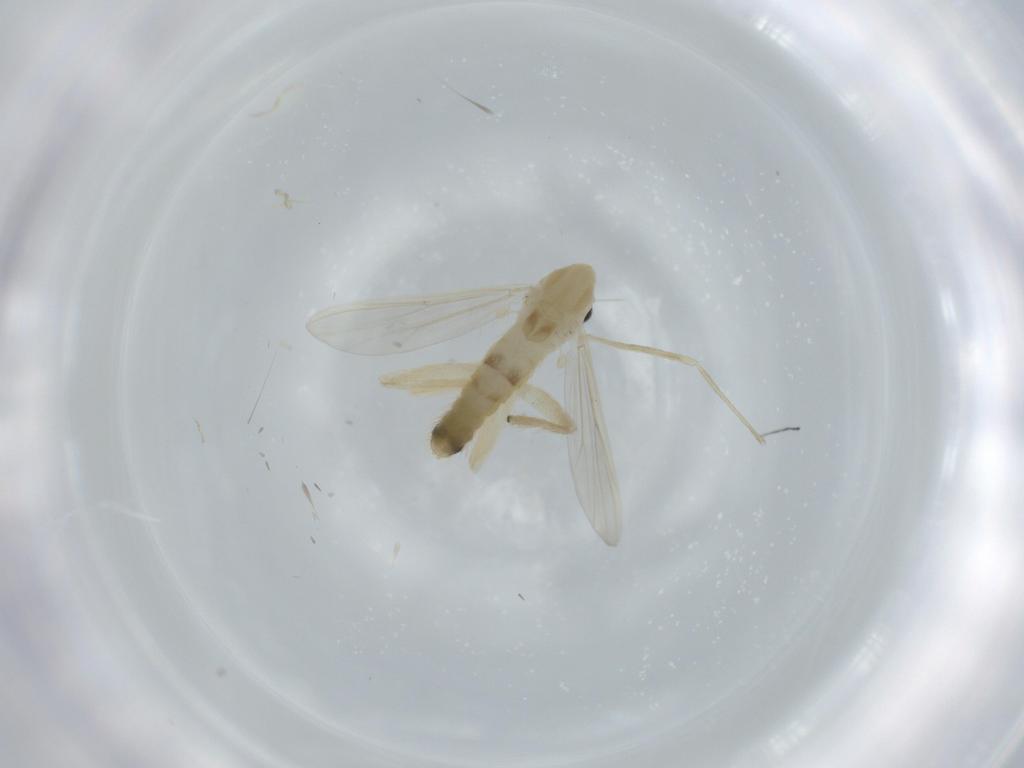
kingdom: Animalia
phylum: Arthropoda
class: Insecta
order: Diptera
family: Chironomidae
